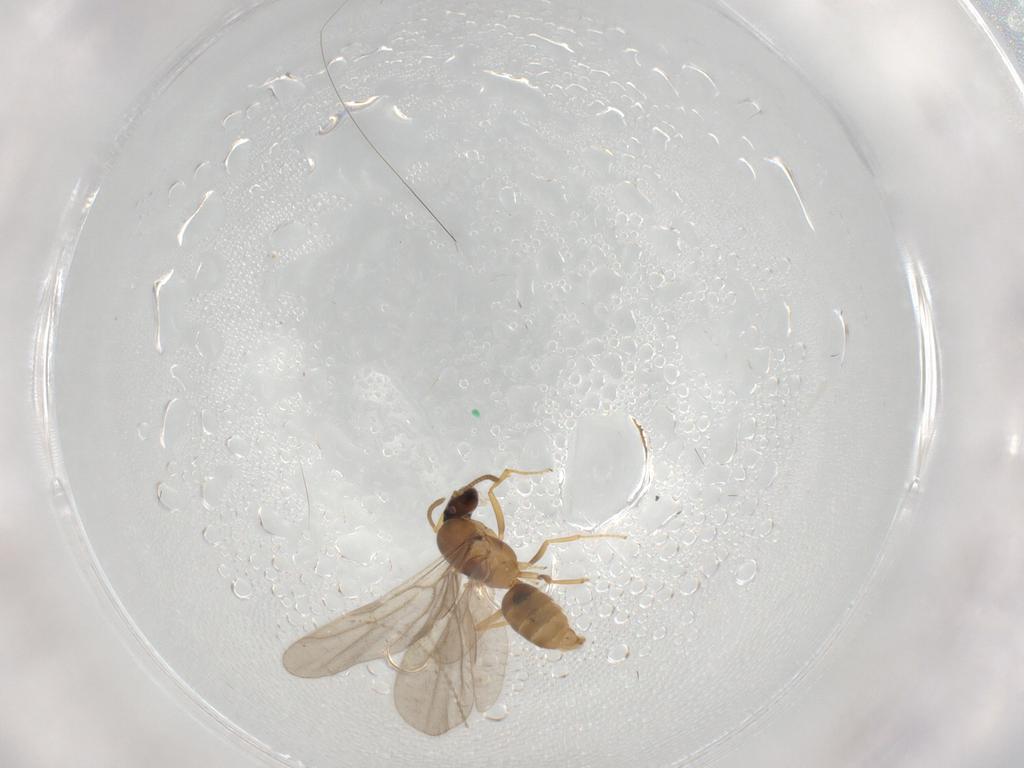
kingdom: Animalia
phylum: Arthropoda
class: Insecta
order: Hymenoptera
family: Formicidae
